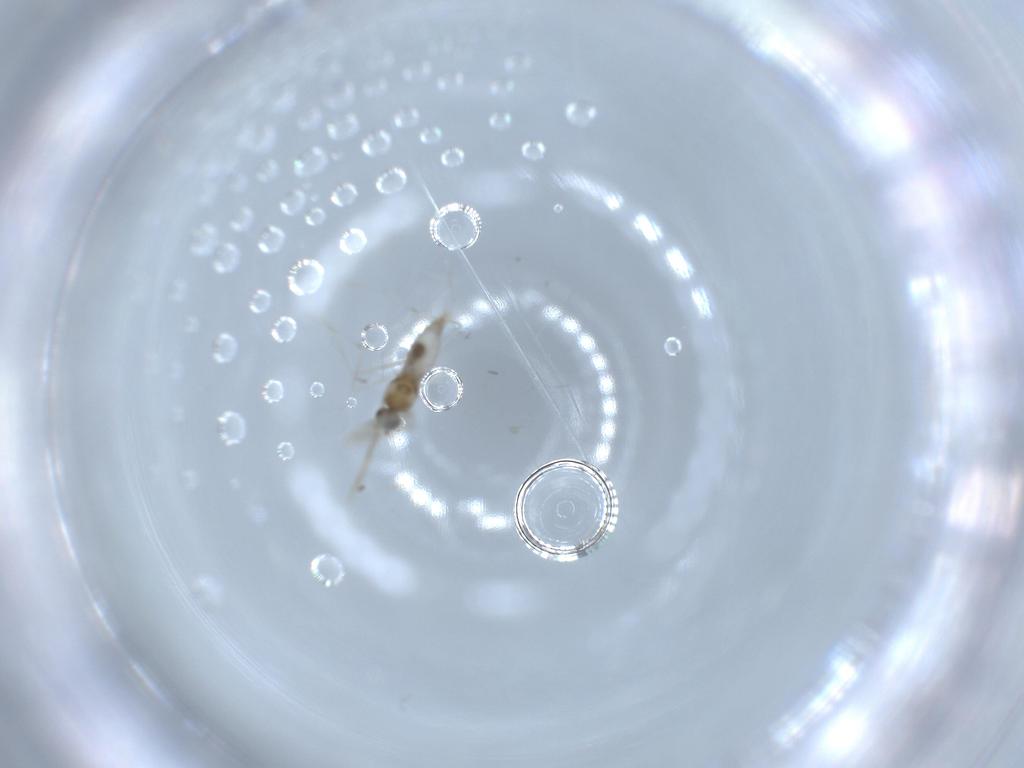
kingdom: Animalia
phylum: Arthropoda
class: Insecta
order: Diptera
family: Cecidomyiidae
